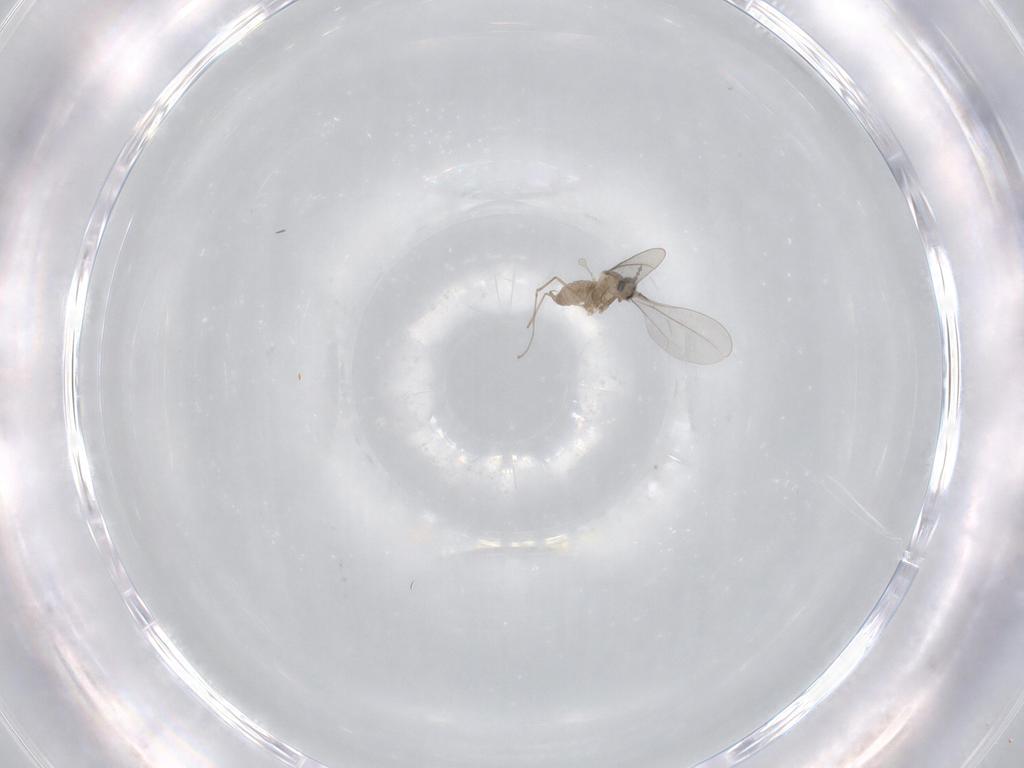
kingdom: Animalia
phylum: Arthropoda
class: Insecta
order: Diptera
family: Cecidomyiidae
